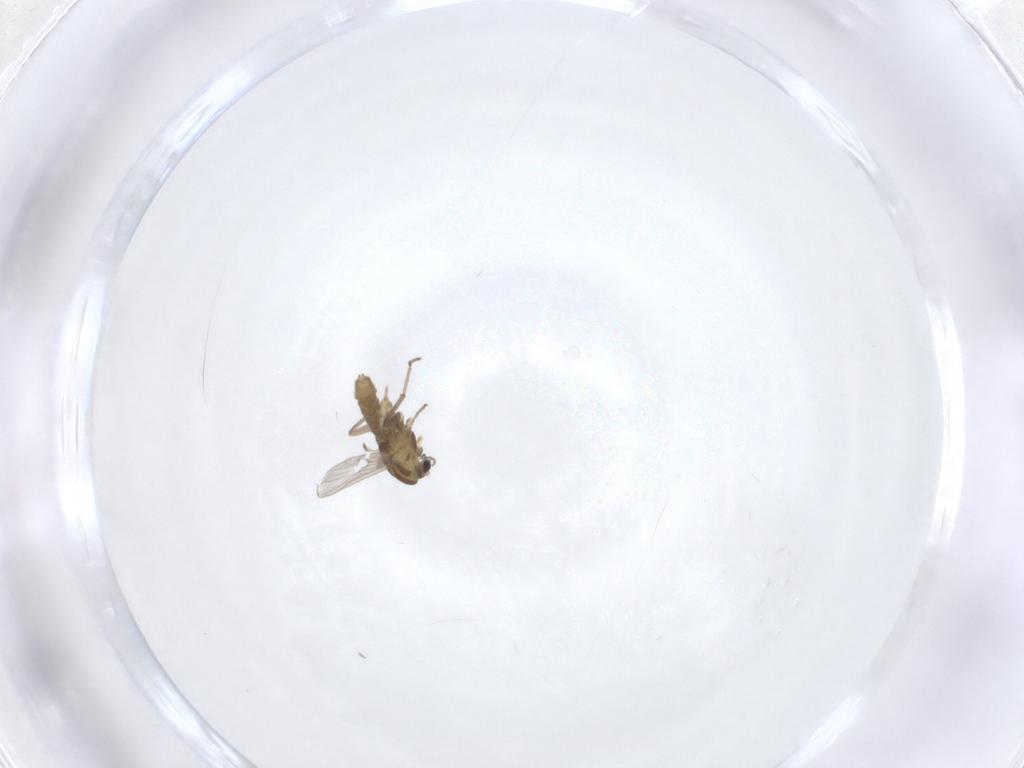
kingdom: Animalia
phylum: Arthropoda
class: Insecta
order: Diptera
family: Chironomidae
